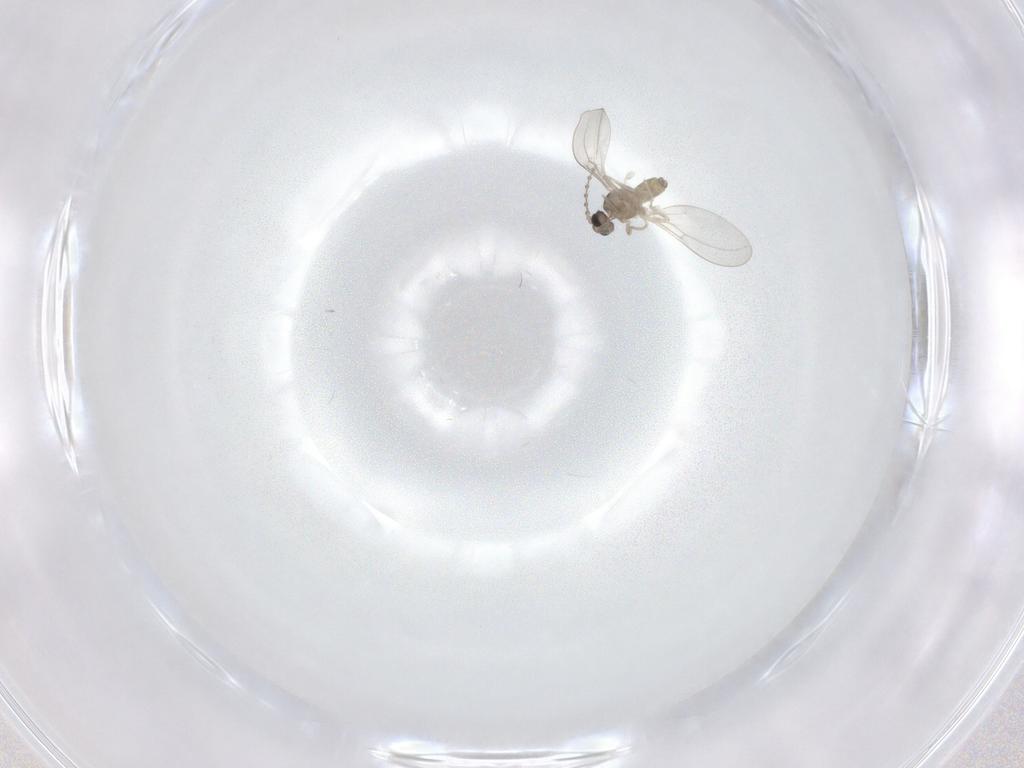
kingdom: Animalia
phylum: Arthropoda
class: Insecta
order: Diptera
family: Cecidomyiidae
